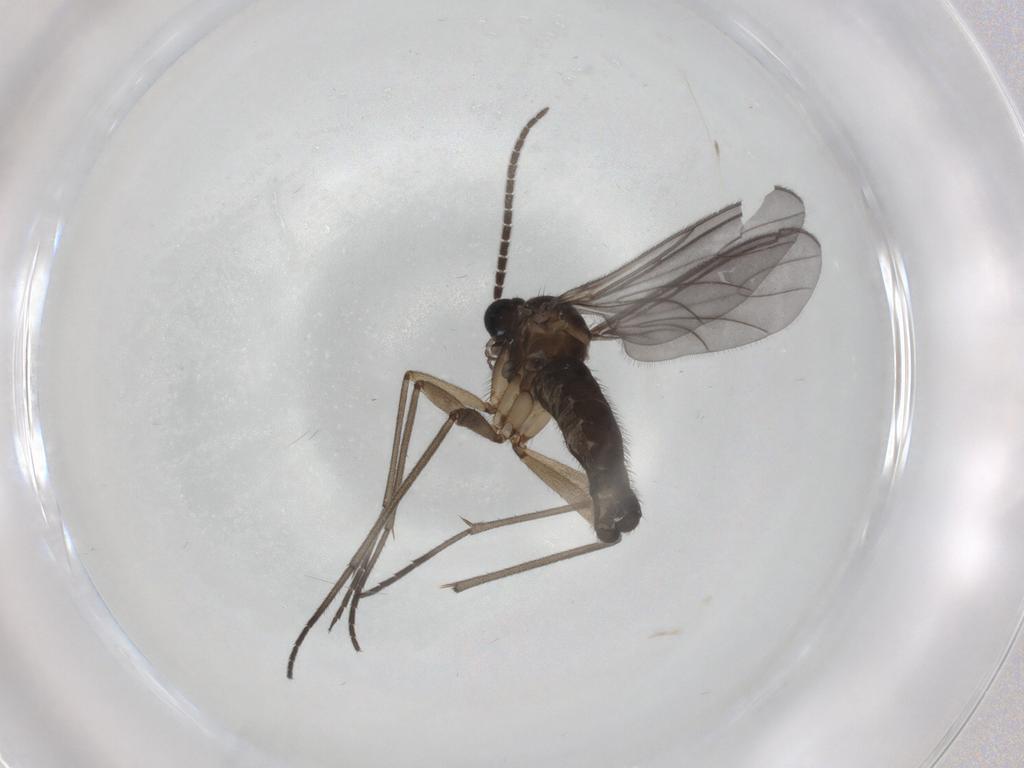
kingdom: Animalia
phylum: Arthropoda
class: Insecta
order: Diptera
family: Sciaridae
